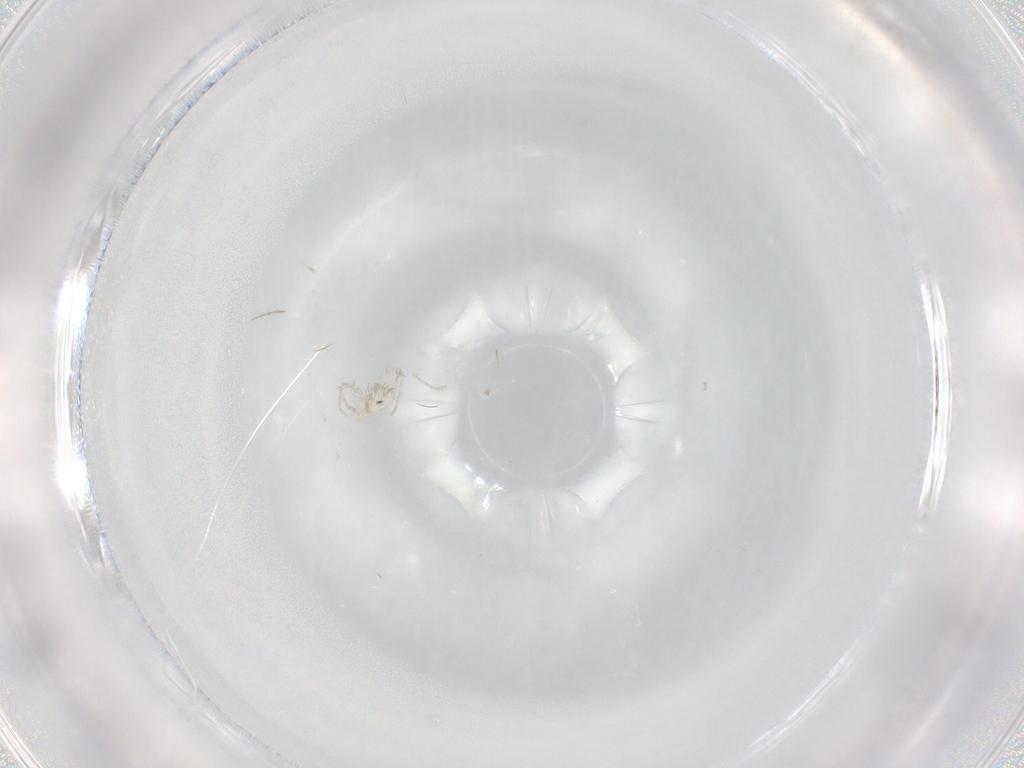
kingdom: Animalia
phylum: Arthropoda
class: Arachnida
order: Trombidiformes
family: Erythraeidae
